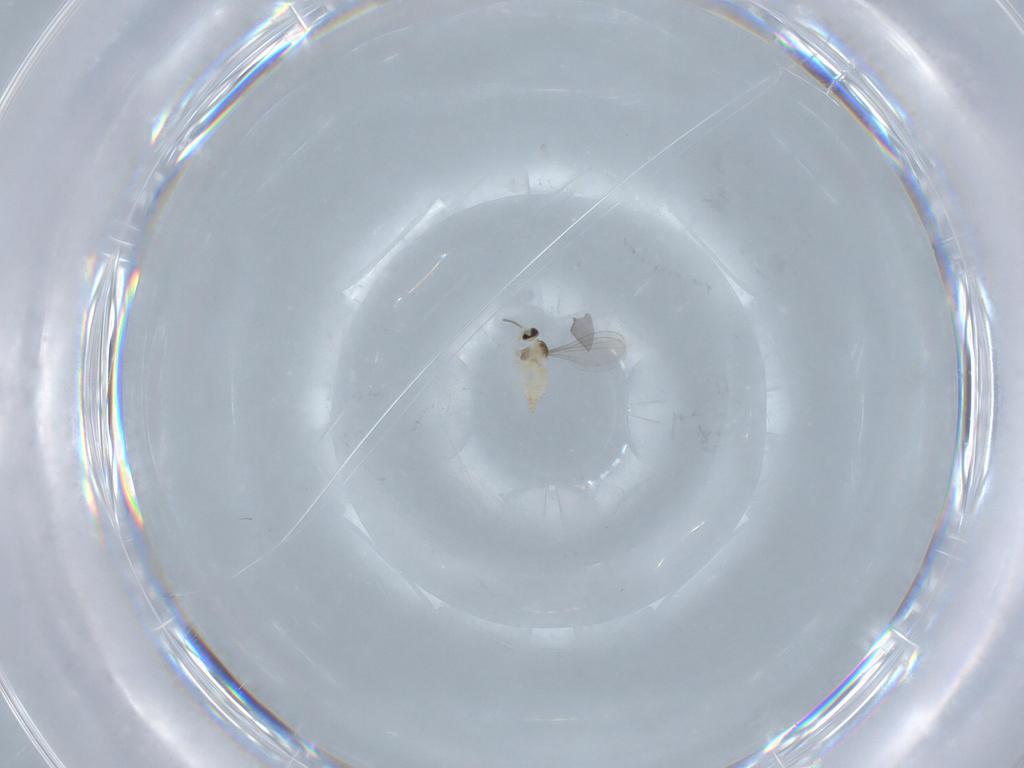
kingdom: Animalia
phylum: Arthropoda
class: Insecta
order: Diptera
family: Cecidomyiidae
